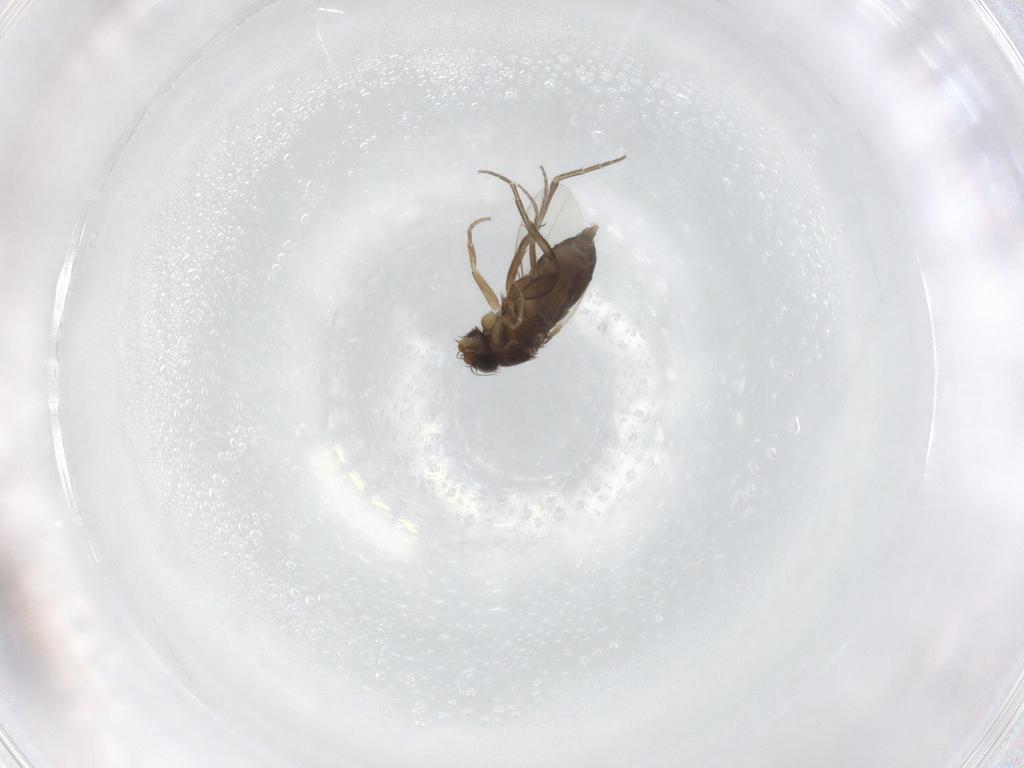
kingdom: Animalia
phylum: Arthropoda
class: Insecta
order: Diptera
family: Phoridae
